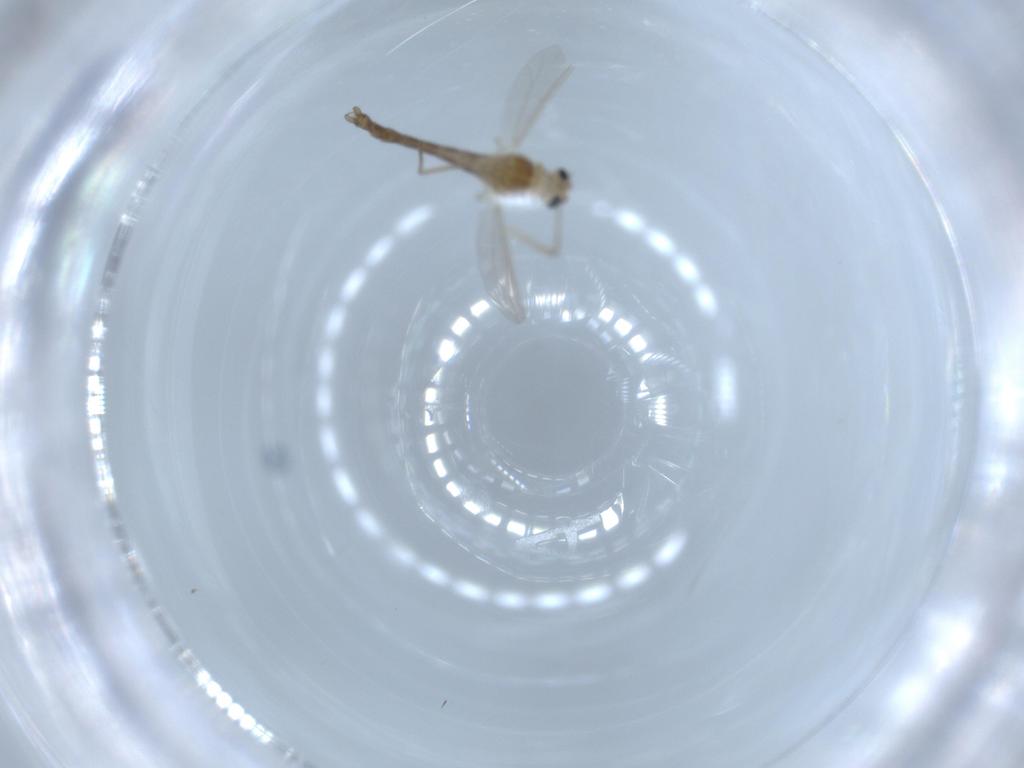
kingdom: Animalia
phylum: Arthropoda
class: Insecta
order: Diptera
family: Chironomidae
